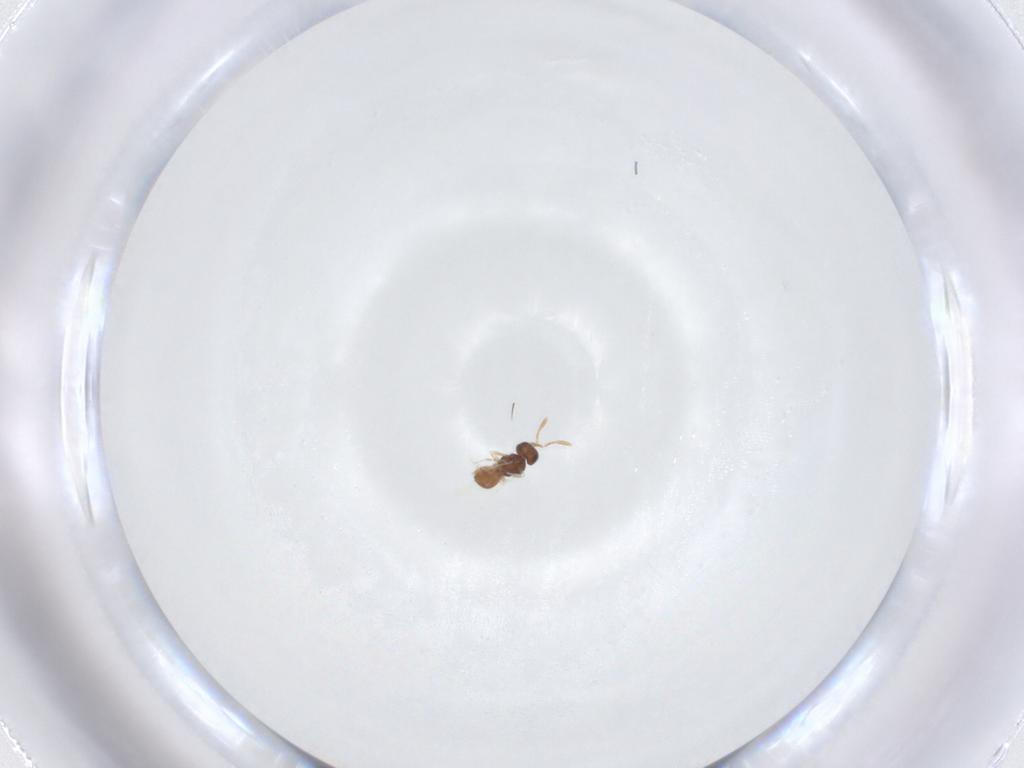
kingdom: Animalia
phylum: Arthropoda
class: Insecta
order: Hymenoptera
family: Scelionidae
